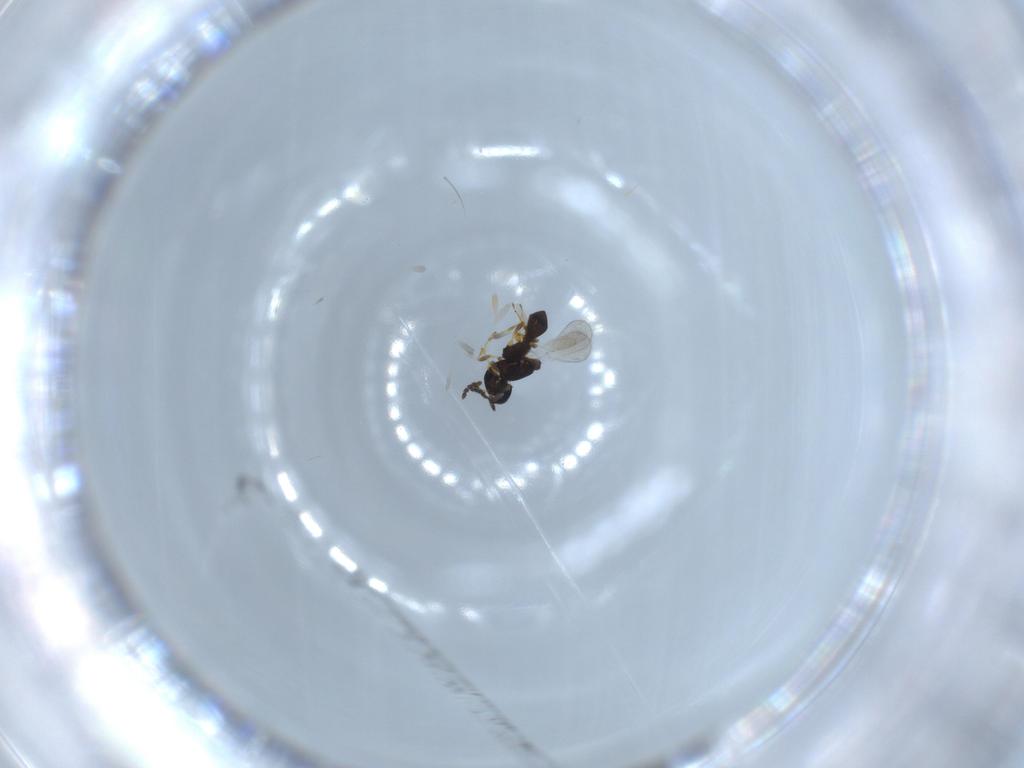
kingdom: Animalia
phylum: Arthropoda
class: Insecta
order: Hymenoptera
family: Platygastridae
